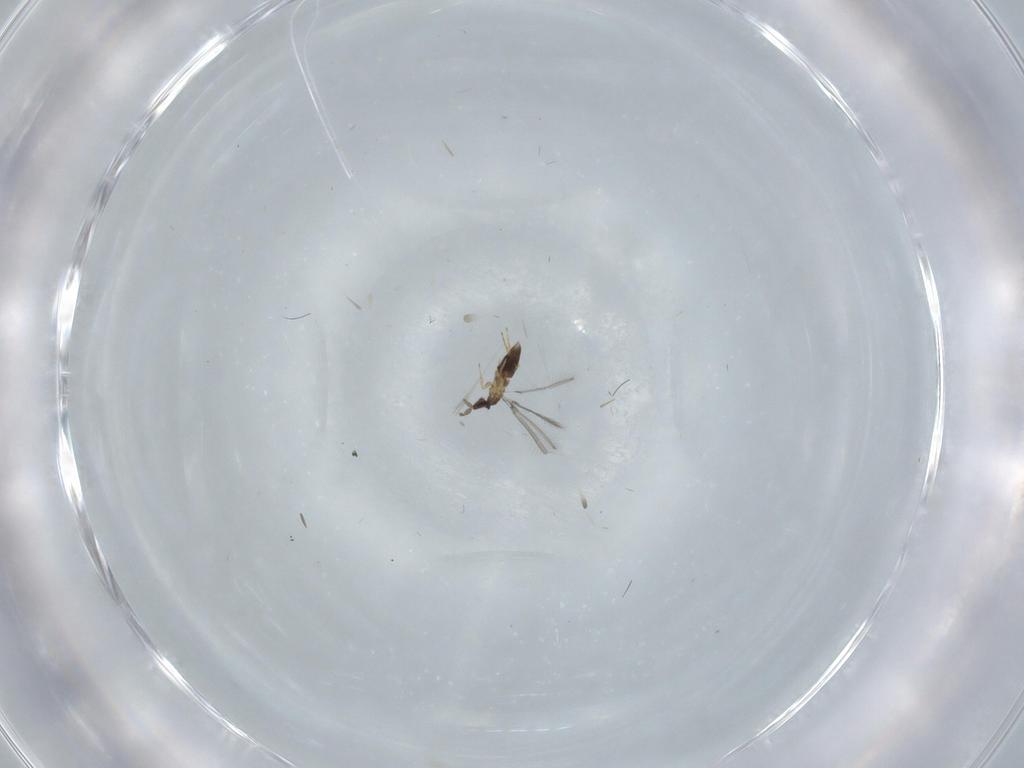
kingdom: Animalia
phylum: Arthropoda
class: Insecta
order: Hymenoptera
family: Mymaridae
